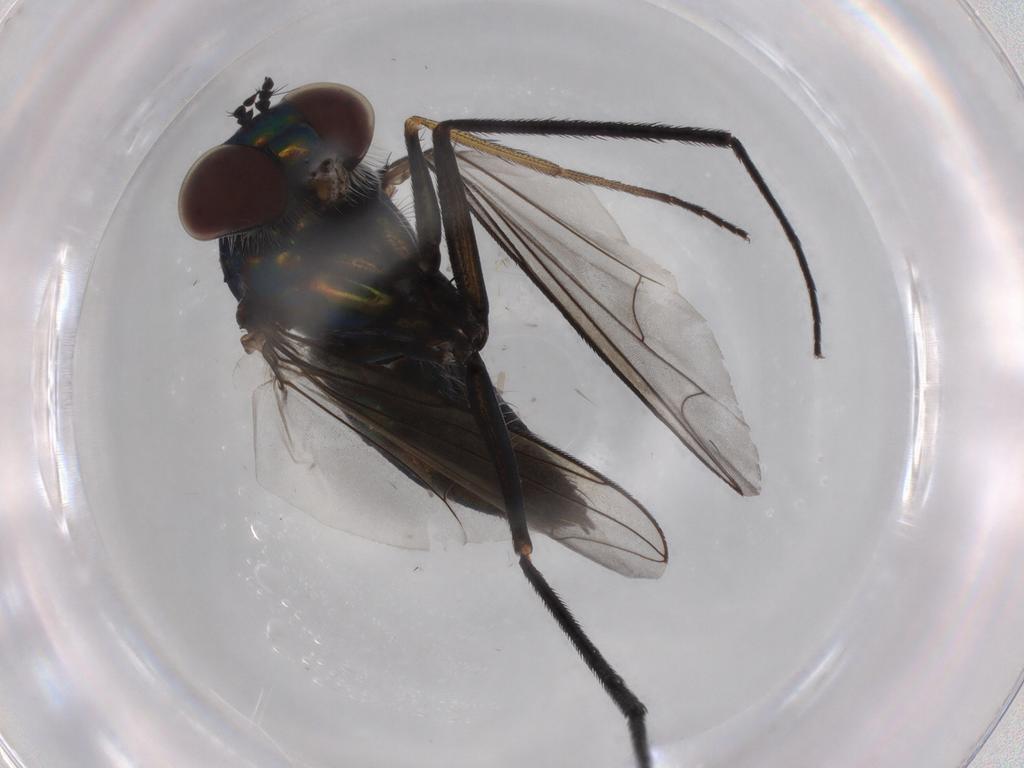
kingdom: Animalia
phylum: Arthropoda
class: Insecta
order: Diptera
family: Dolichopodidae
